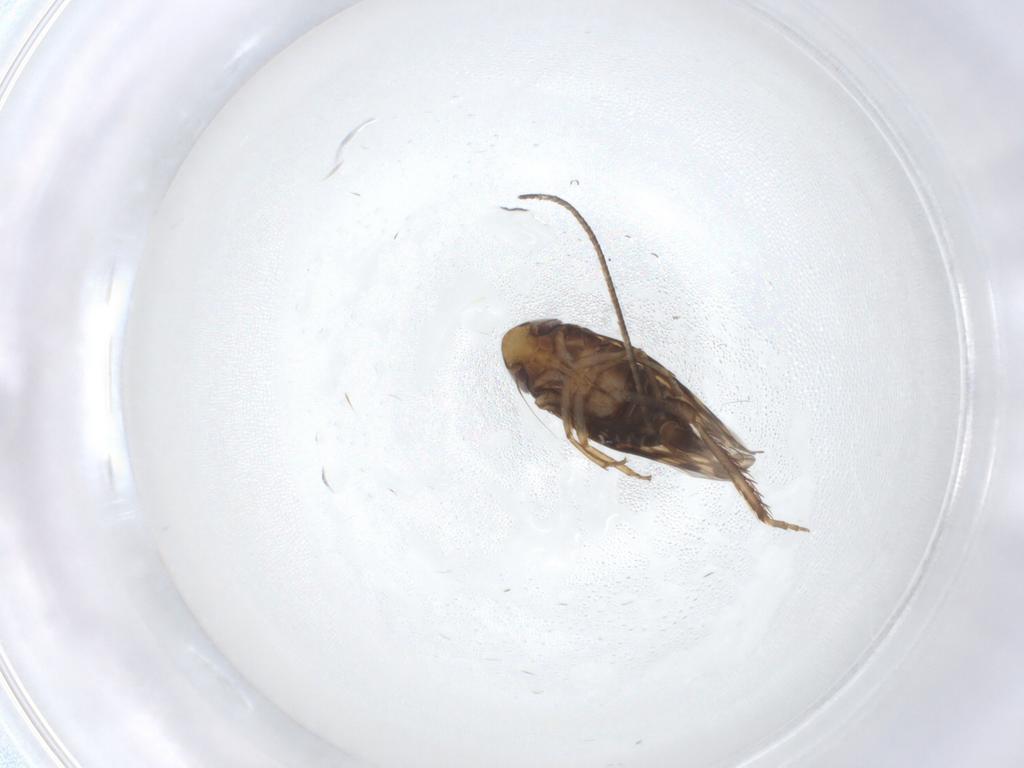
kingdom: Animalia
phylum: Arthropoda
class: Insecta
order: Hemiptera
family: Cicadellidae
